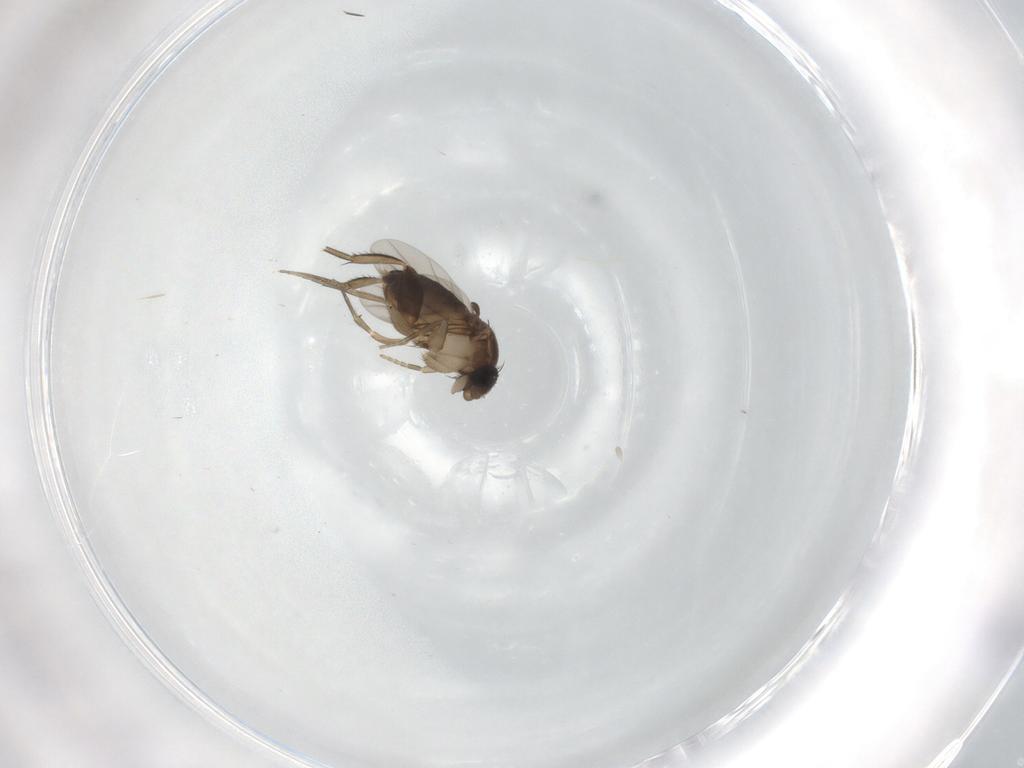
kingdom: Animalia
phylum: Arthropoda
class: Insecta
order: Diptera
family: Phoridae
